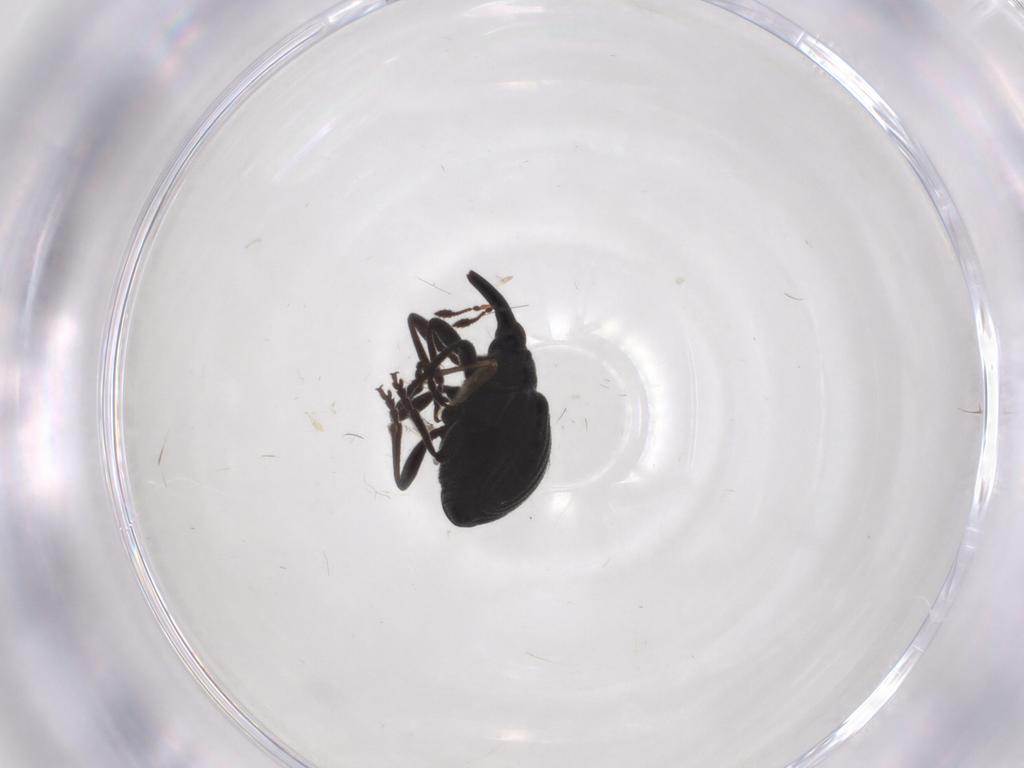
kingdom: Animalia
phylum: Arthropoda
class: Insecta
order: Coleoptera
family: Brentidae
